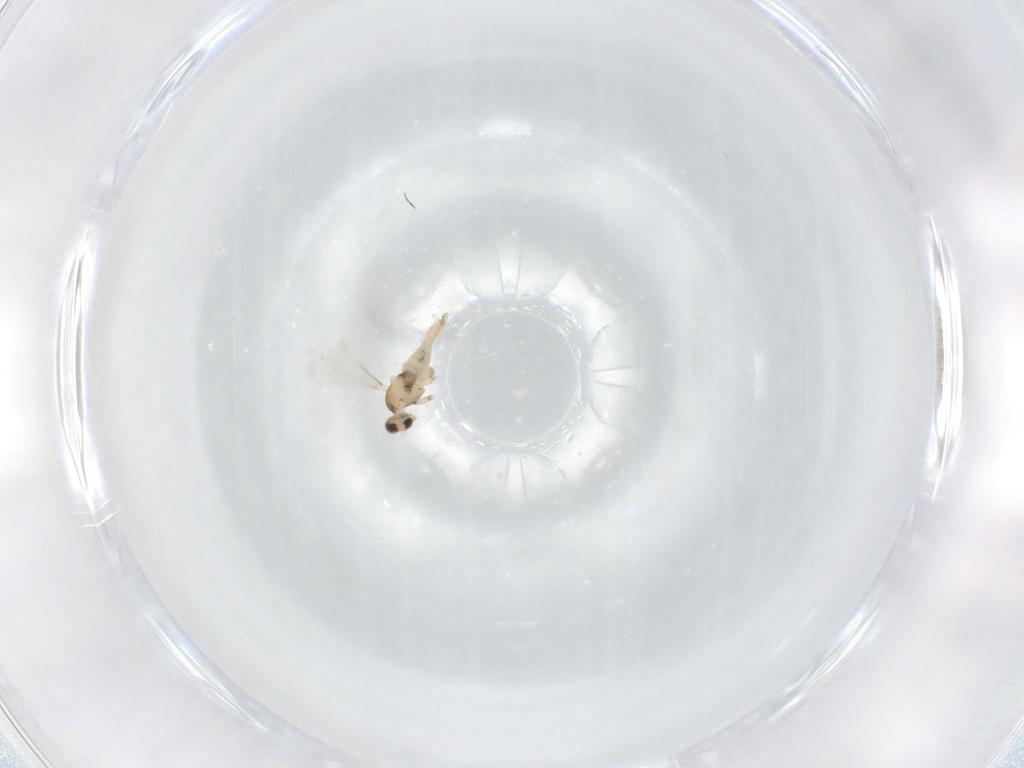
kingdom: Animalia
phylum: Arthropoda
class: Insecta
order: Diptera
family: Cecidomyiidae
